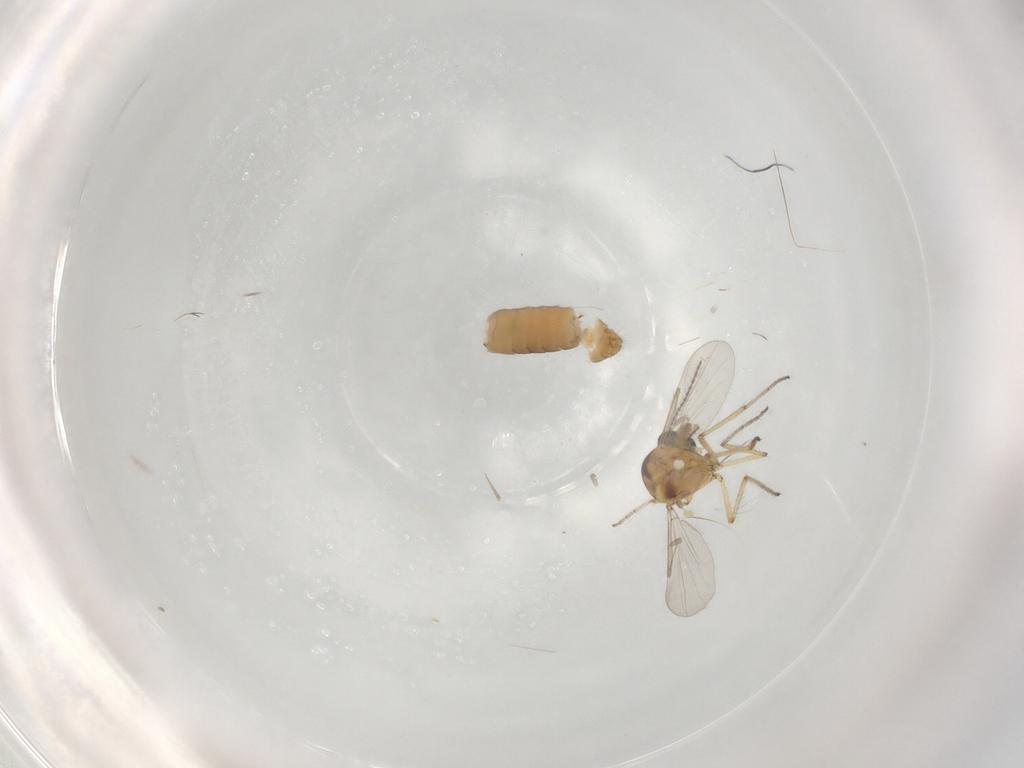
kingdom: Animalia
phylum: Arthropoda
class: Insecta
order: Diptera
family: Ceratopogonidae
